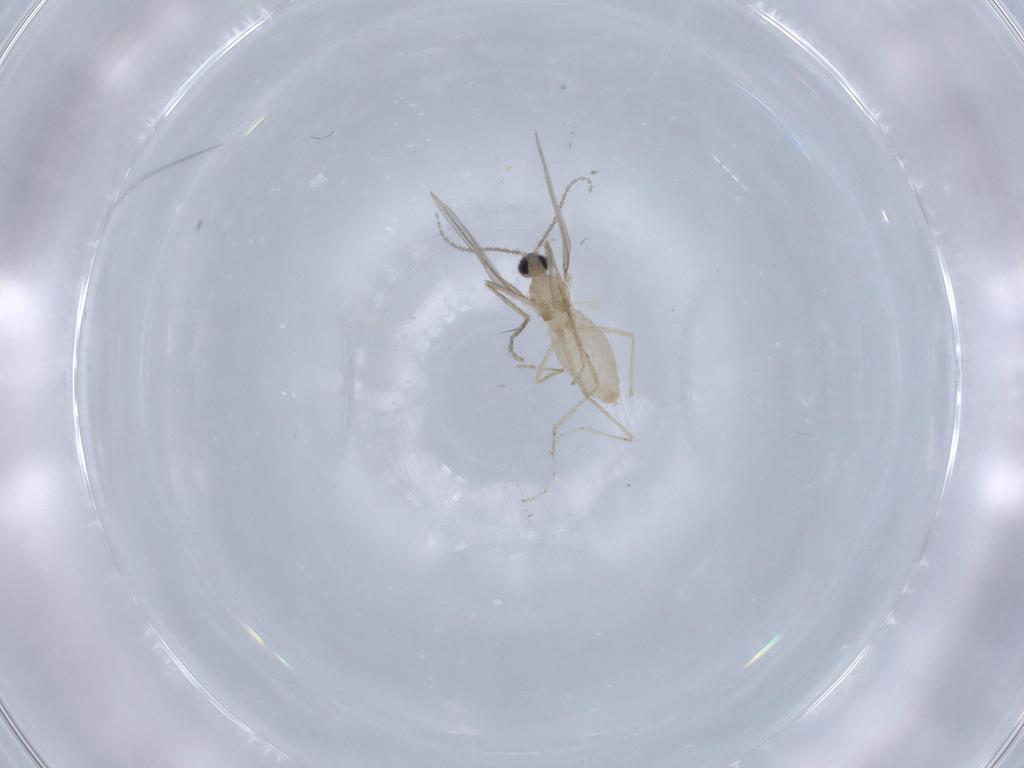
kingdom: Animalia
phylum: Arthropoda
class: Insecta
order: Diptera
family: Cecidomyiidae
